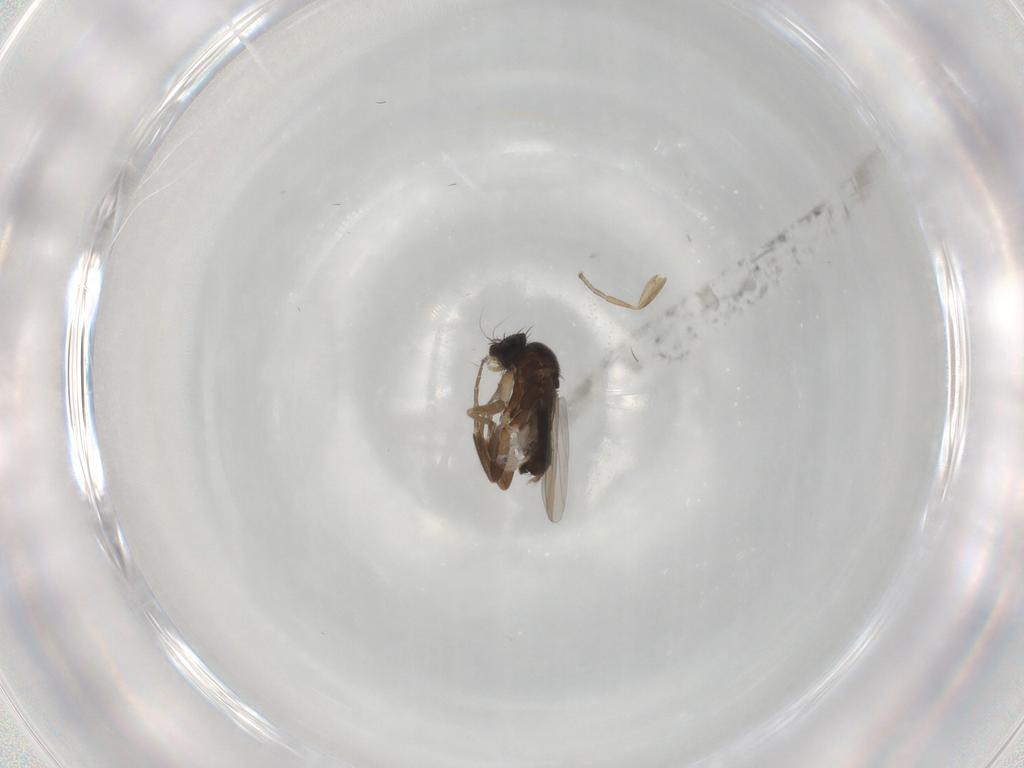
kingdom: Animalia
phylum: Arthropoda
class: Insecta
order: Diptera
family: Phoridae
